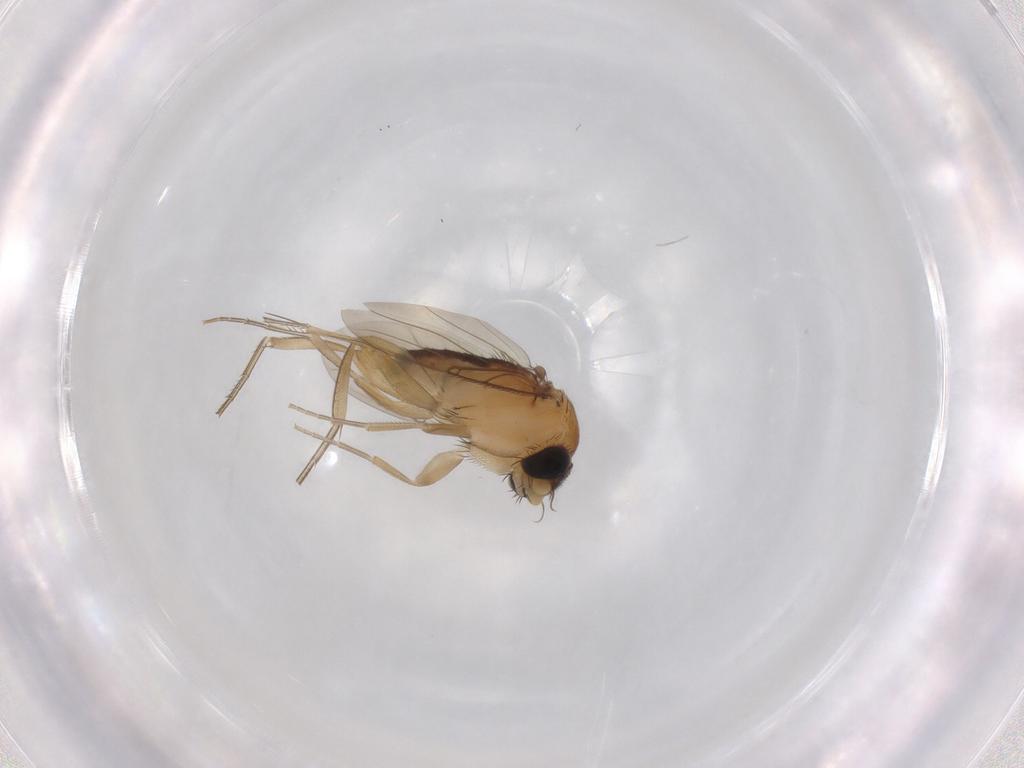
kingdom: Animalia
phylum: Arthropoda
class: Insecta
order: Diptera
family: Phoridae
